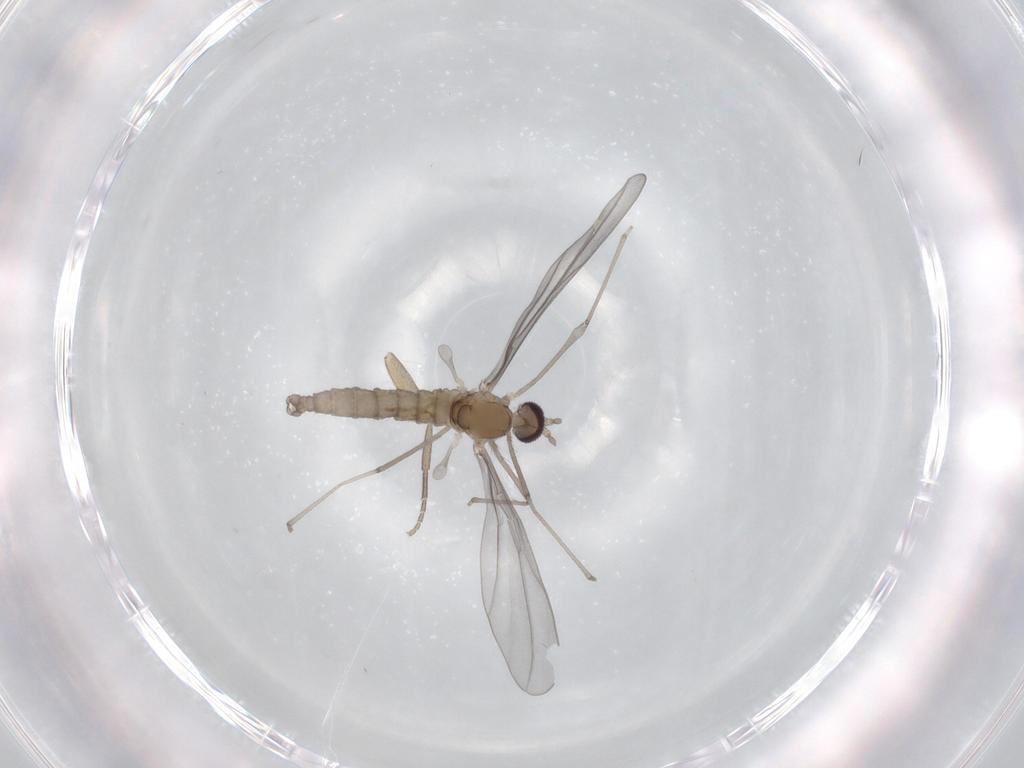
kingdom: Animalia
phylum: Arthropoda
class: Insecta
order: Diptera
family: Cecidomyiidae
